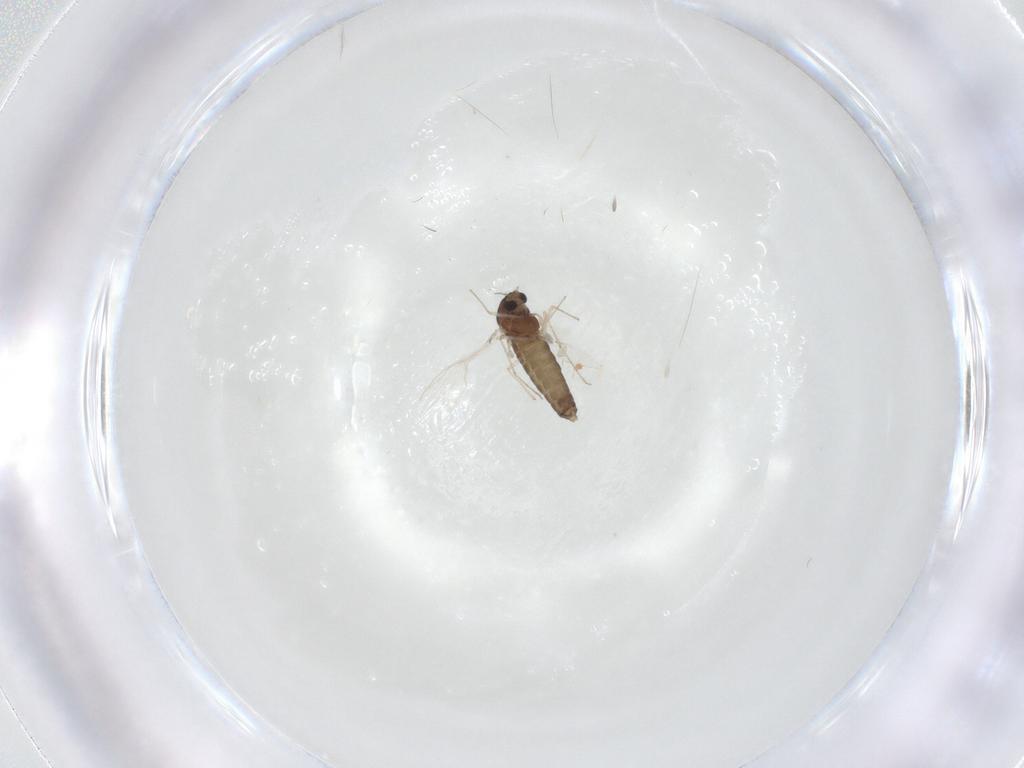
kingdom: Animalia
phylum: Arthropoda
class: Insecta
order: Diptera
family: Chironomidae
